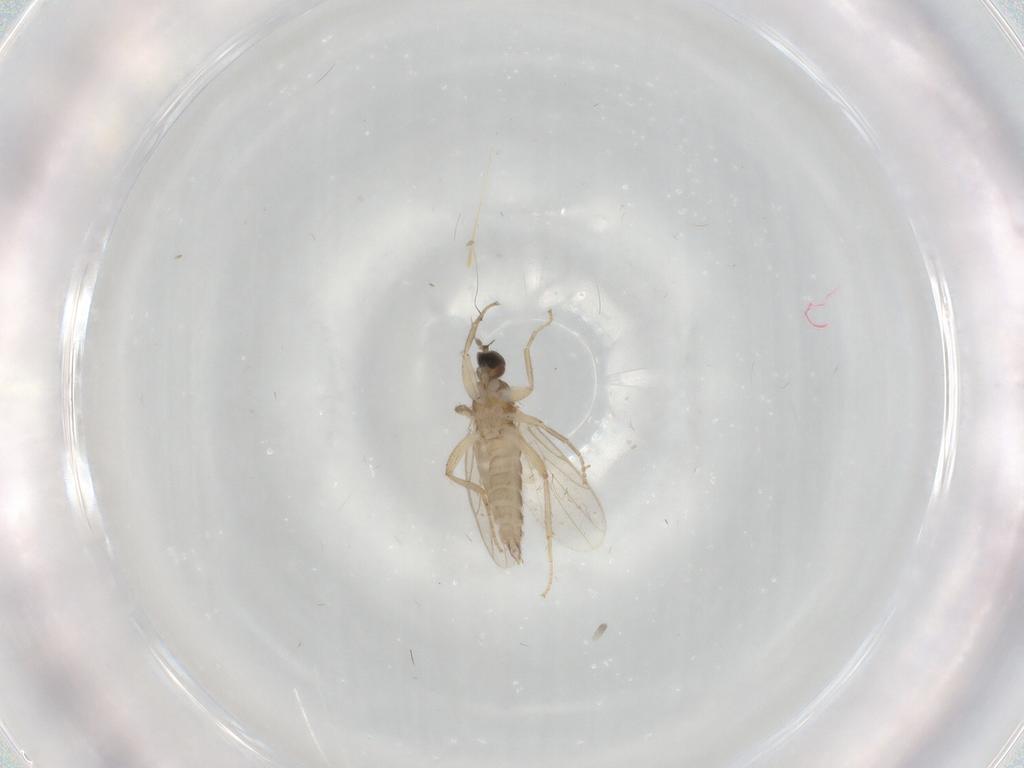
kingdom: Animalia
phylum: Arthropoda
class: Insecta
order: Diptera
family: Hybotidae
